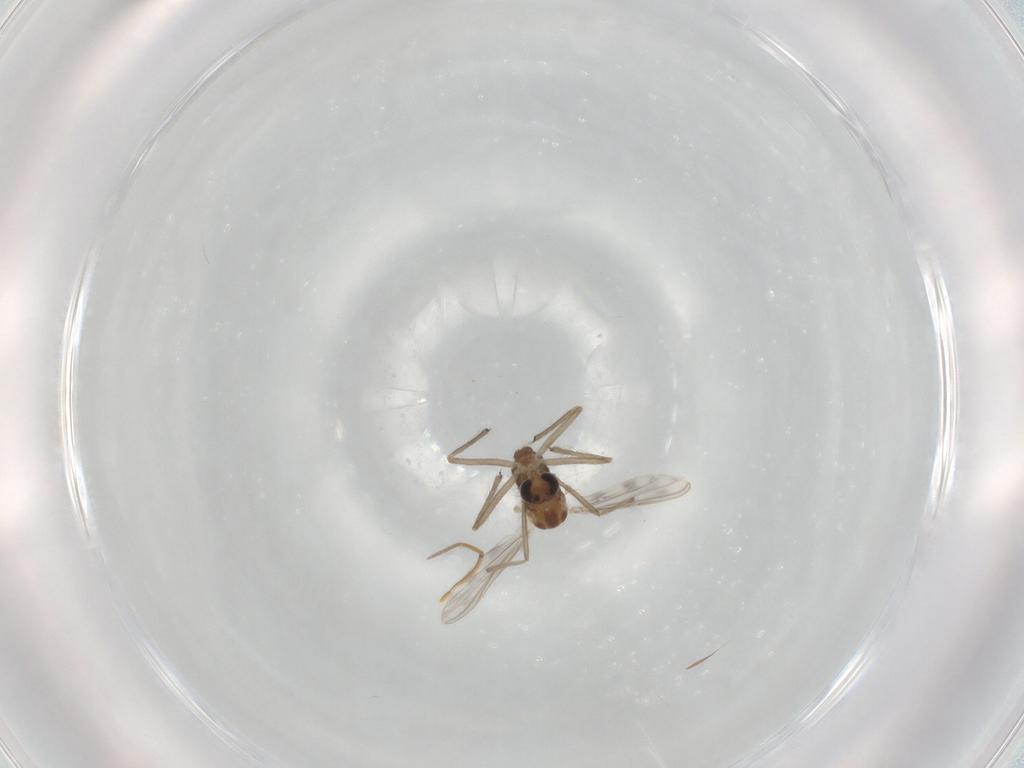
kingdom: Animalia
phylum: Arthropoda
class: Insecta
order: Diptera
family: Chironomidae
